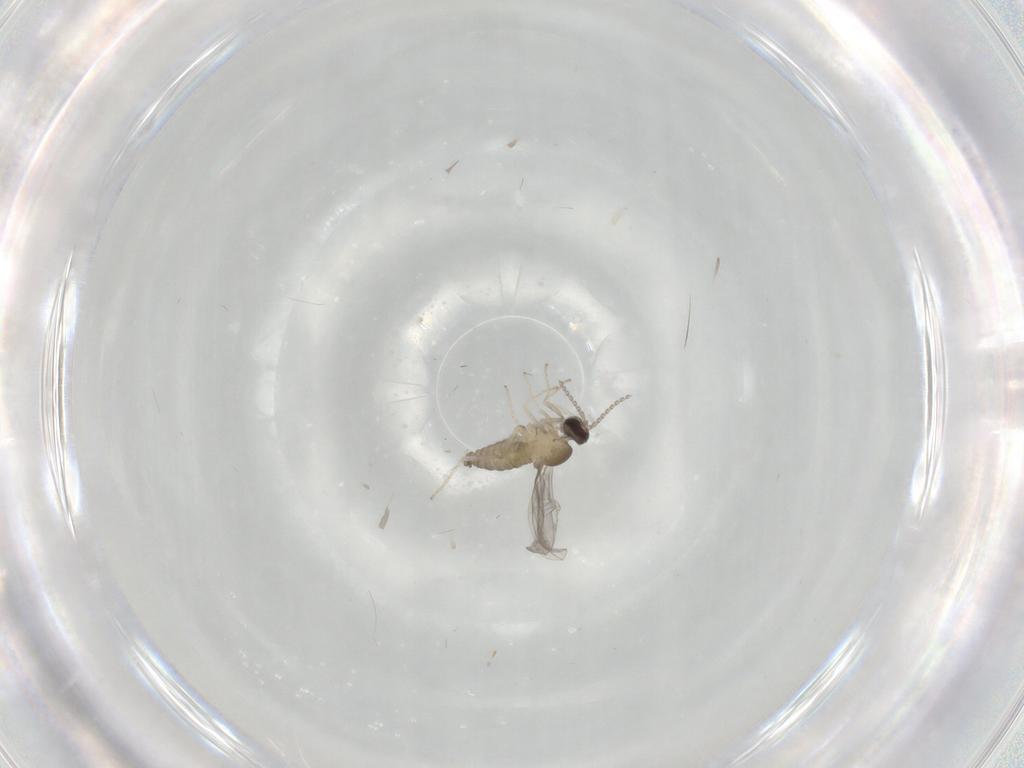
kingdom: Animalia
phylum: Arthropoda
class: Insecta
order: Diptera
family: Cecidomyiidae
